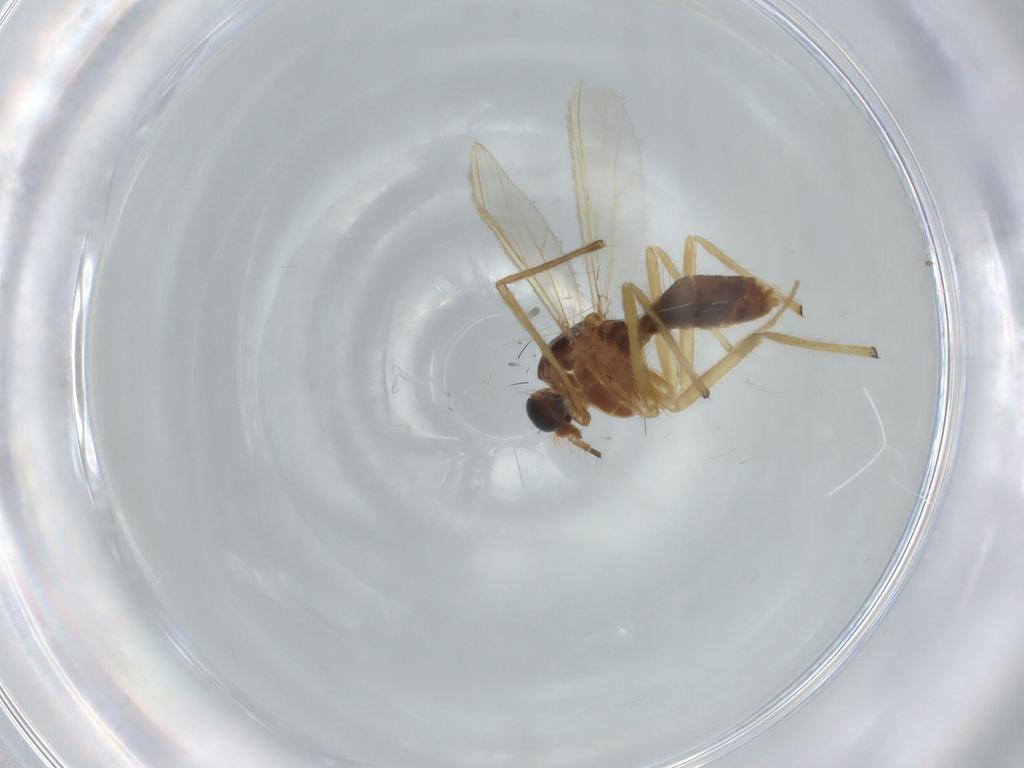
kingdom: Animalia
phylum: Arthropoda
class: Insecta
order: Diptera
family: Chironomidae
